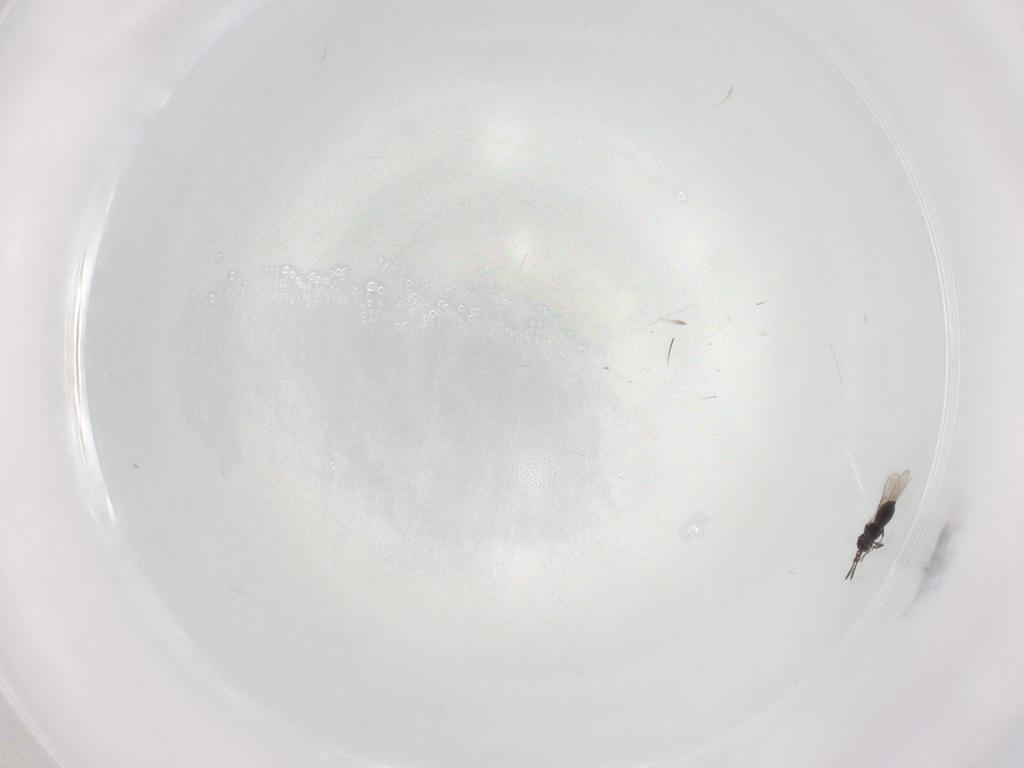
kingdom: Animalia
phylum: Arthropoda
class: Insecta
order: Hymenoptera
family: Scelionidae
